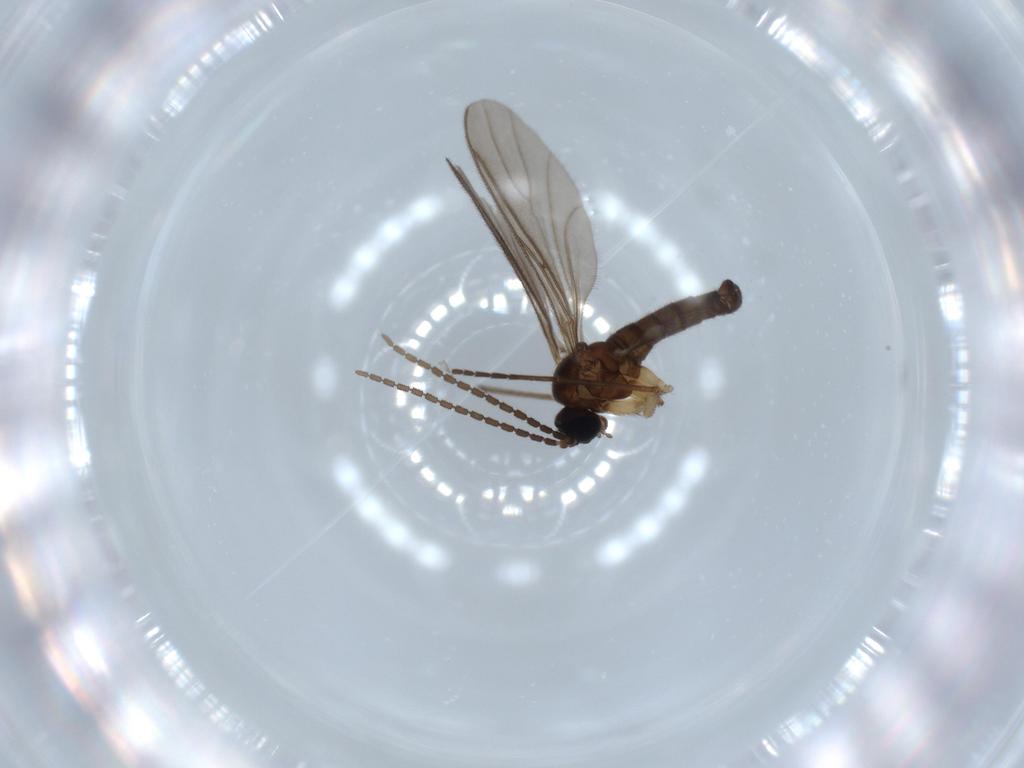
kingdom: Animalia
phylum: Arthropoda
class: Insecta
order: Diptera
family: Sciaridae
